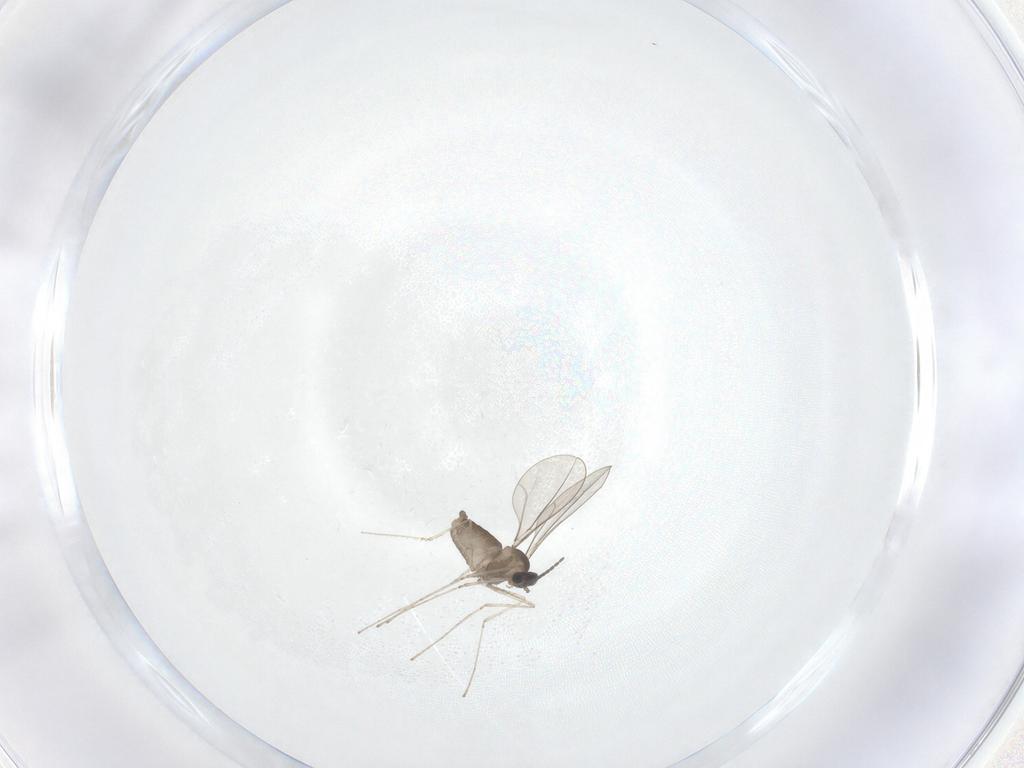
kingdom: Animalia
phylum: Arthropoda
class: Insecta
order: Diptera
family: Cecidomyiidae
